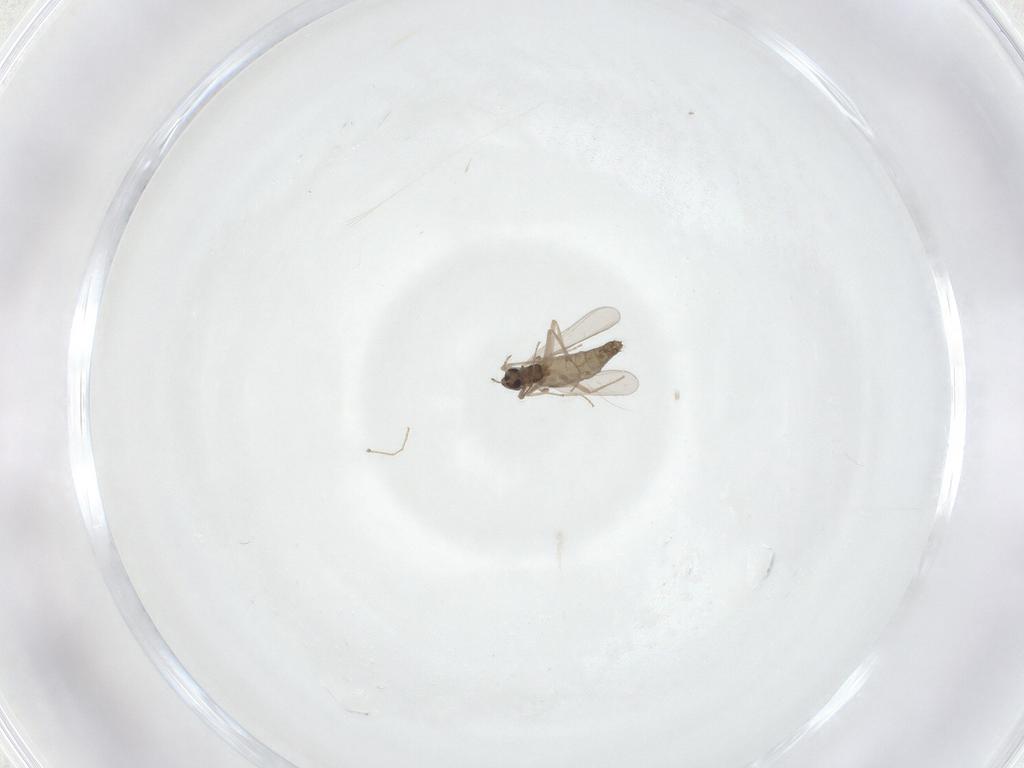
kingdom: Animalia
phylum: Arthropoda
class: Insecta
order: Diptera
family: Chironomidae
